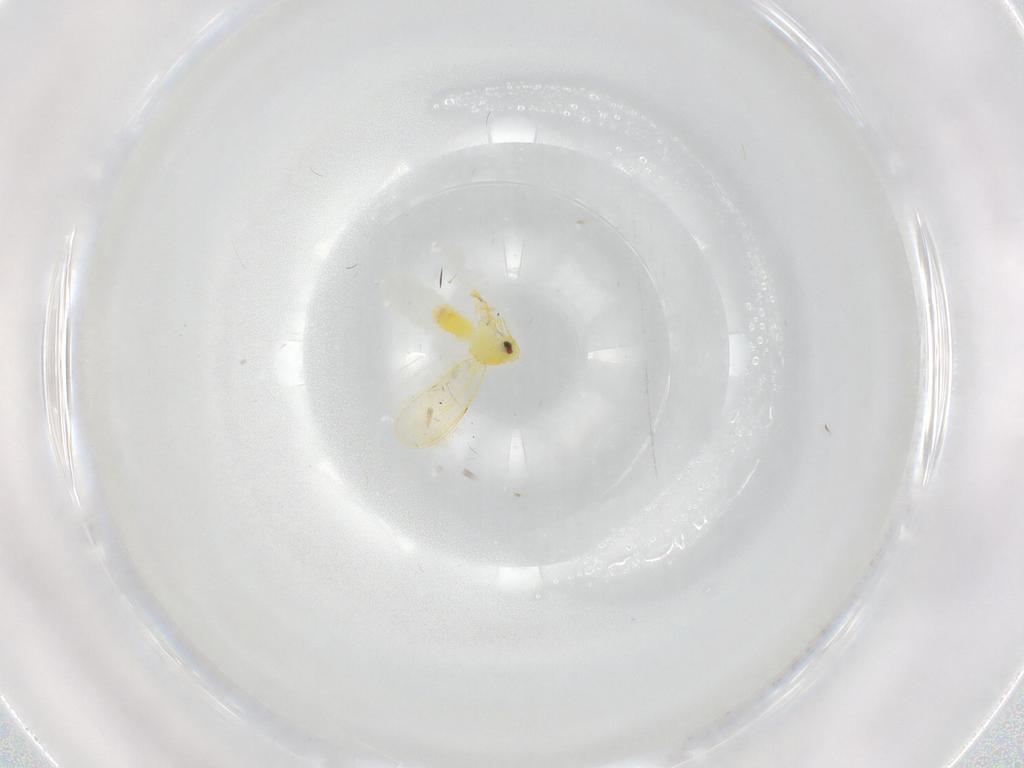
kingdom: Animalia
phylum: Arthropoda
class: Insecta
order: Hemiptera
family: Aleyrodidae
